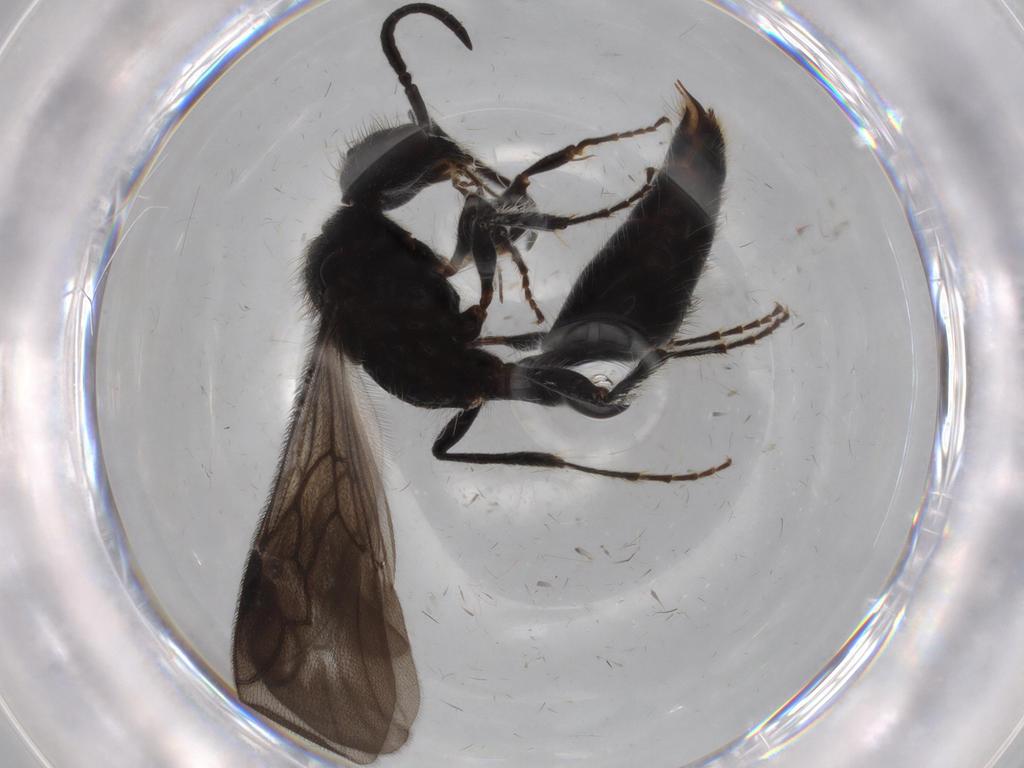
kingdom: Animalia
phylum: Arthropoda
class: Insecta
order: Hymenoptera
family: Mutillidae
